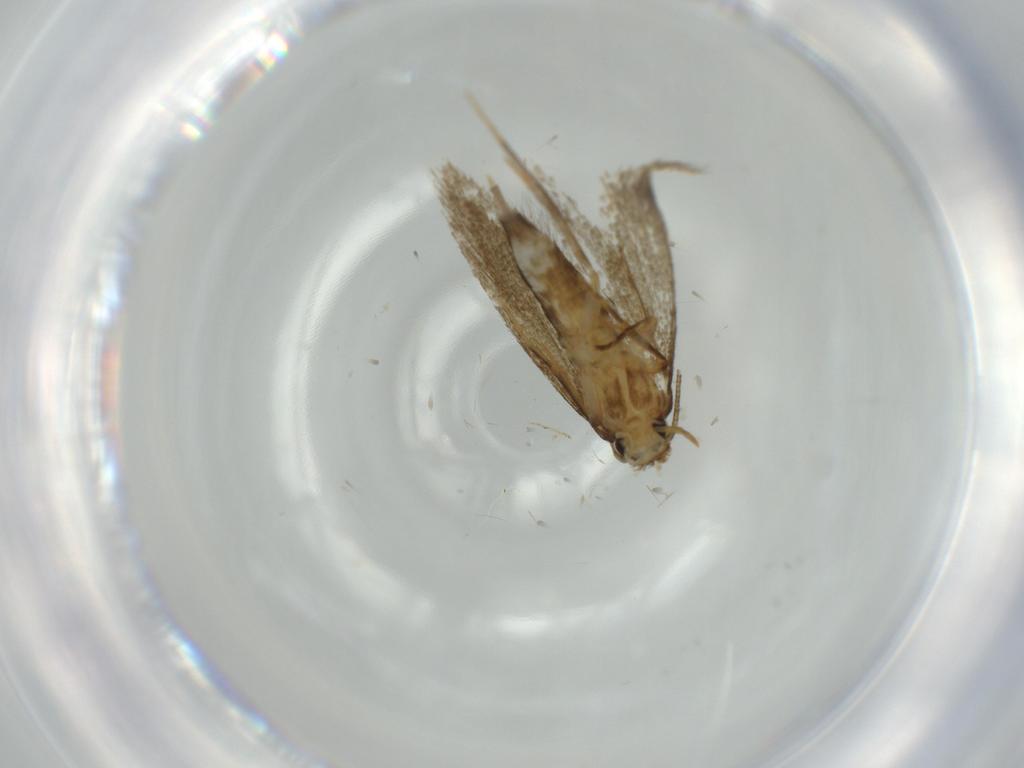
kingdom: Animalia
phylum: Arthropoda
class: Insecta
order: Lepidoptera
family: Tineidae
